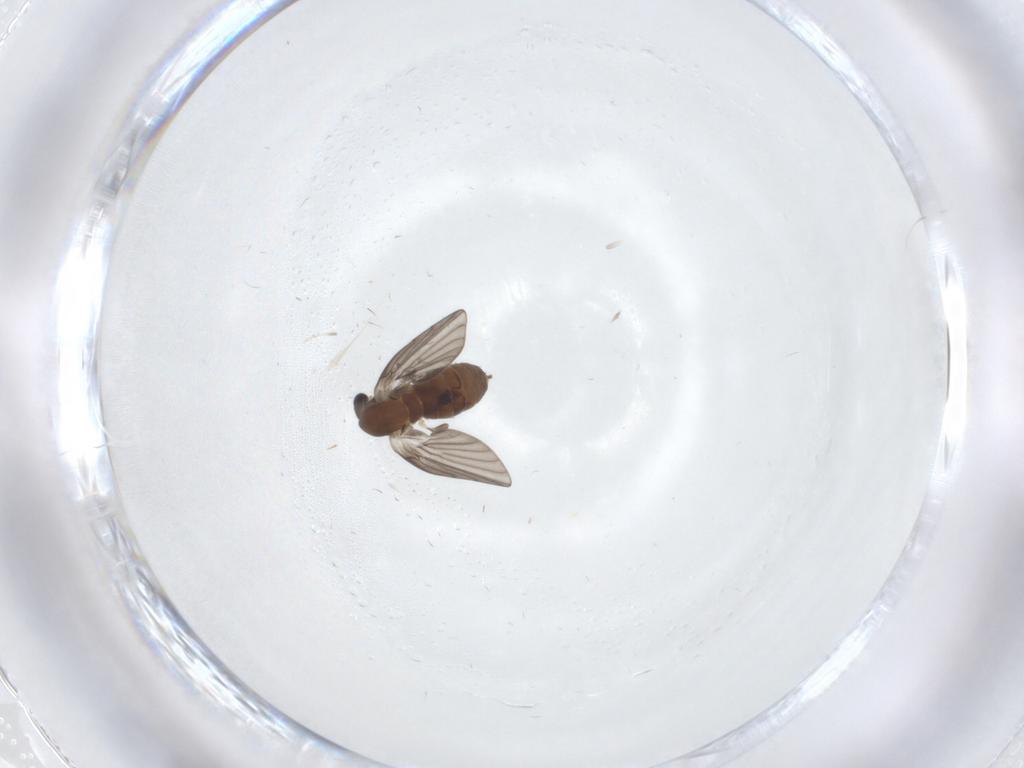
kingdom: Animalia
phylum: Arthropoda
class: Insecta
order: Diptera
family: Psychodidae
